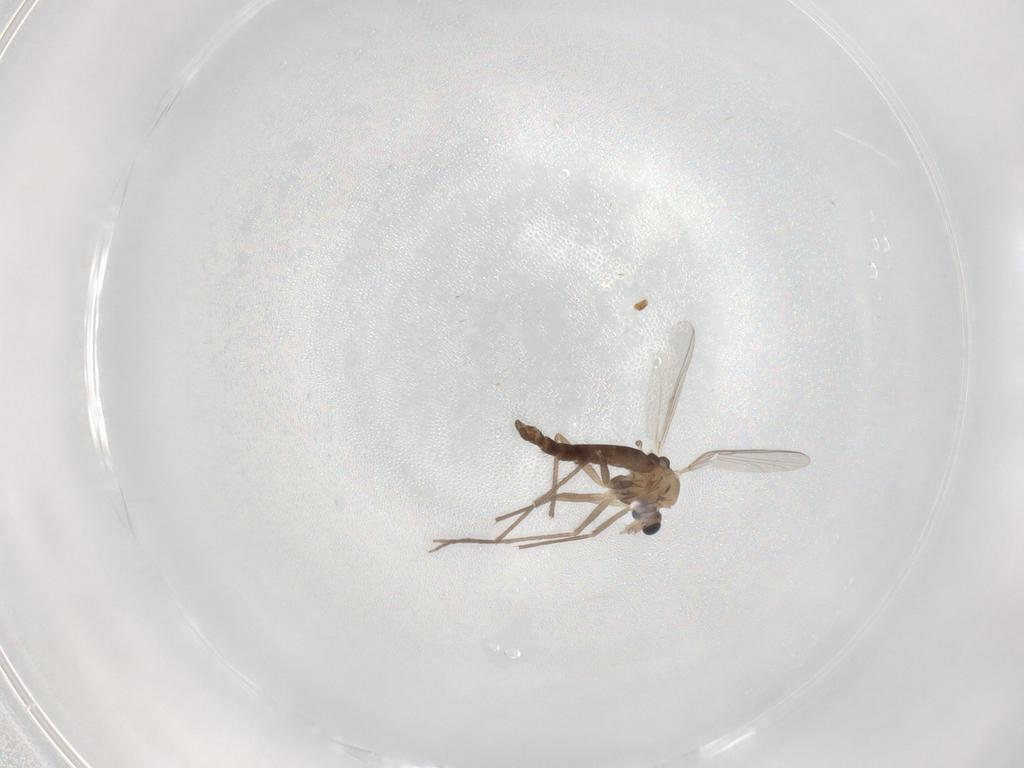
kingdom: Animalia
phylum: Arthropoda
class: Insecta
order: Diptera
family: Chironomidae
